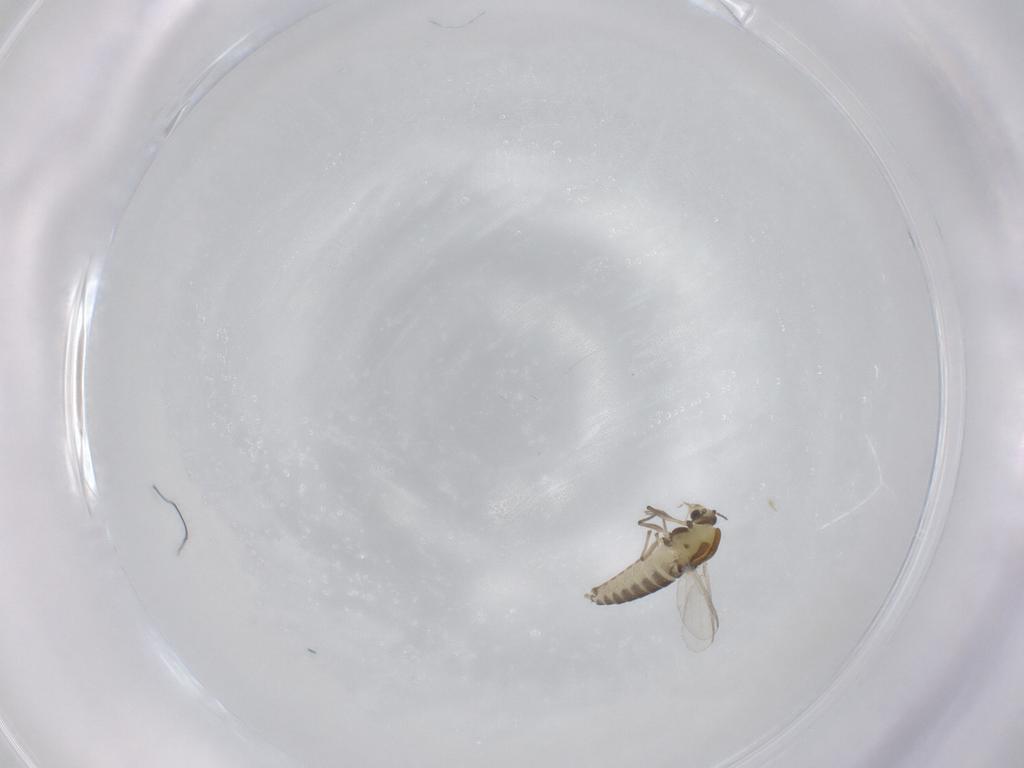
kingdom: Animalia
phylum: Arthropoda
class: Insecta
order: Diptera
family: Chironomidae
